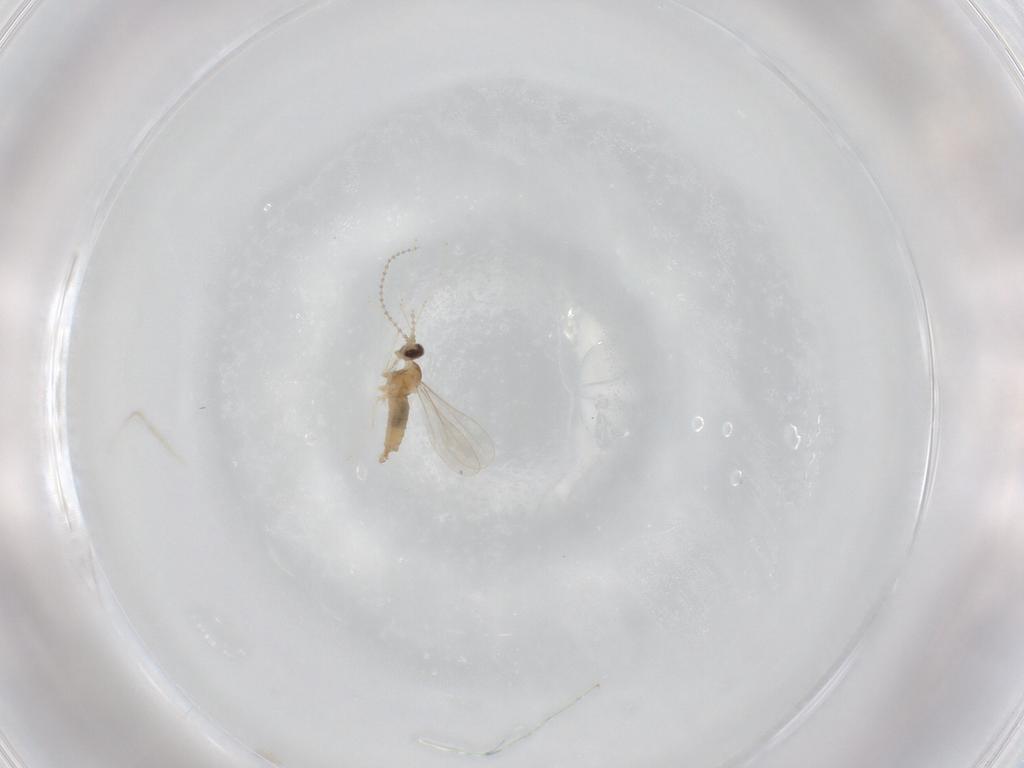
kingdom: Animalia
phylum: Arthropoda
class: Insecta
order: Diptera
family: Cecidomyiidae
